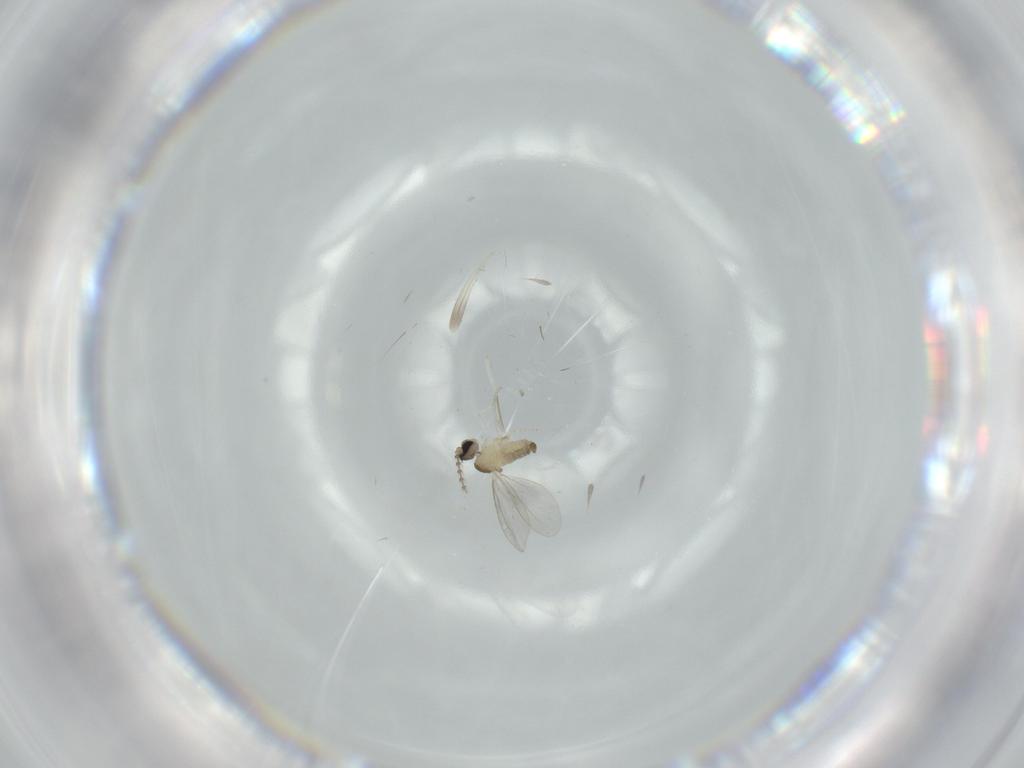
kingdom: Animalia
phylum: Arthropoda
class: Insecta
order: Diptera
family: Cecidomyiidae
